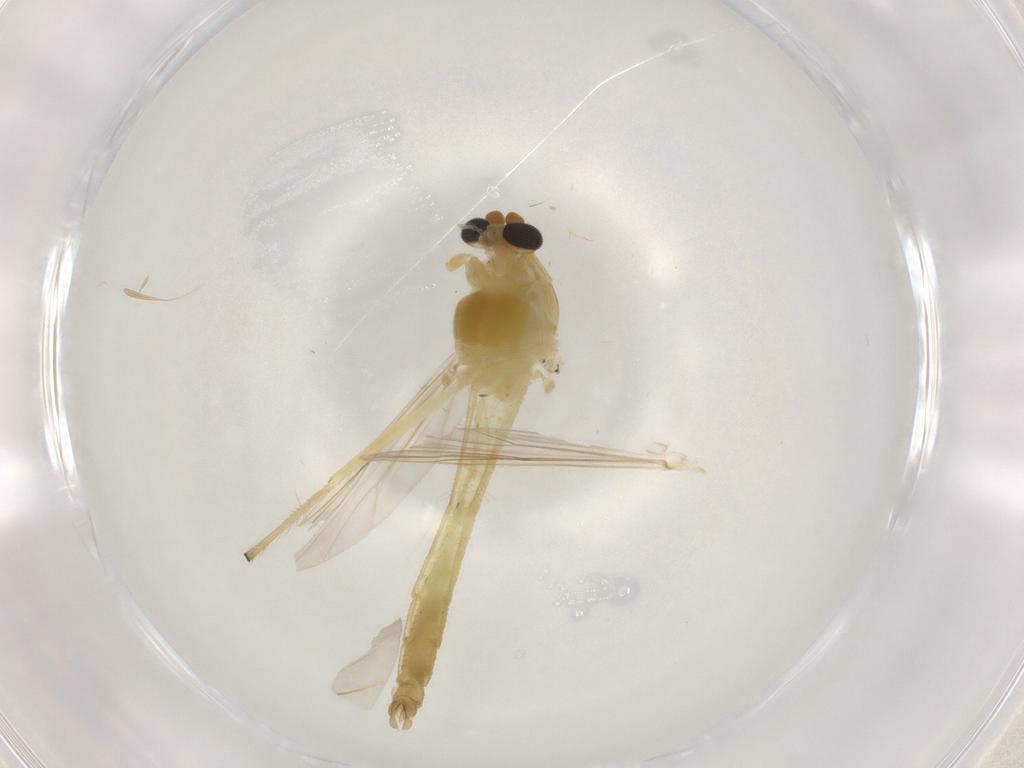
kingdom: Animalia
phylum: Arthropoda
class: Insecta
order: Diptera
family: Chironomidae
